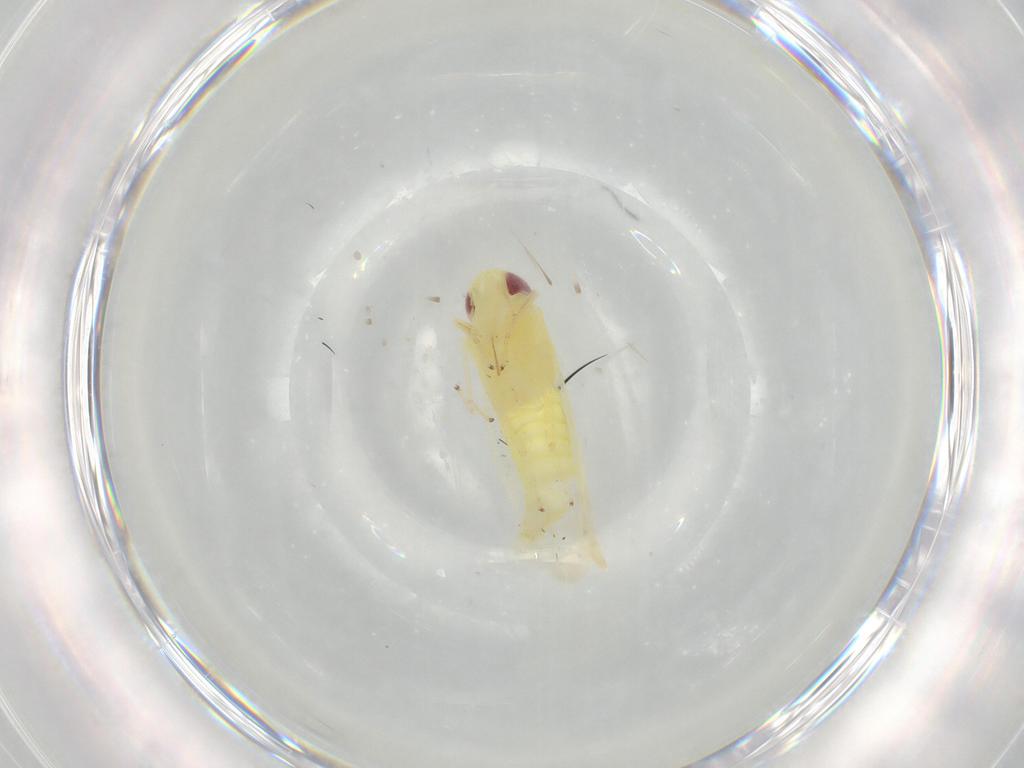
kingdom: Animalia
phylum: Arthropoda
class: Insecta
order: Hemiptera
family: Cicadellidae
